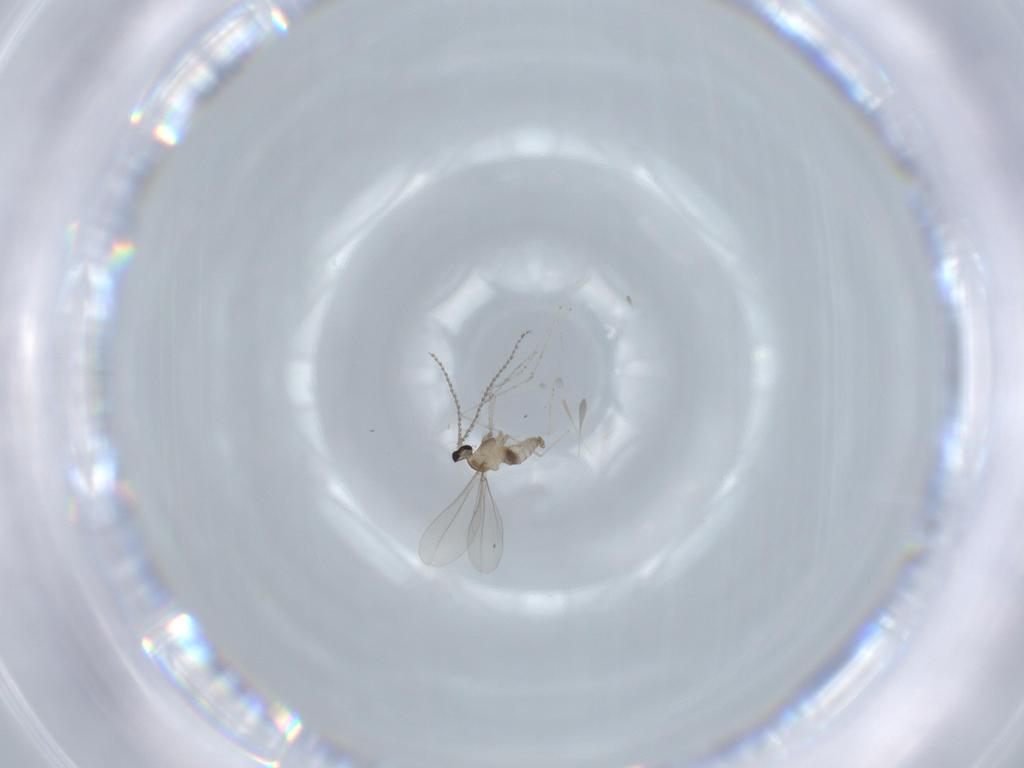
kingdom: Animalia
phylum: Arthropoda
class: Insecta
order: Diptera
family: Cecidomyiidae
